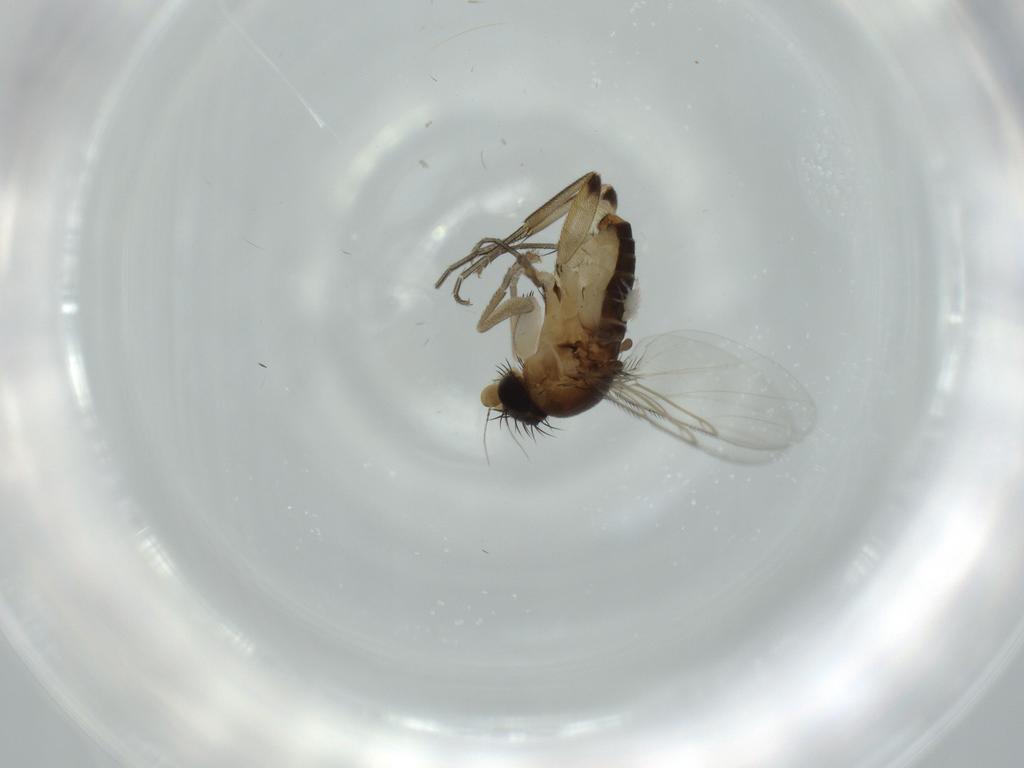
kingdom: Animalia
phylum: Arthropoda
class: Insecta
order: Diptera
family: Phoridae
